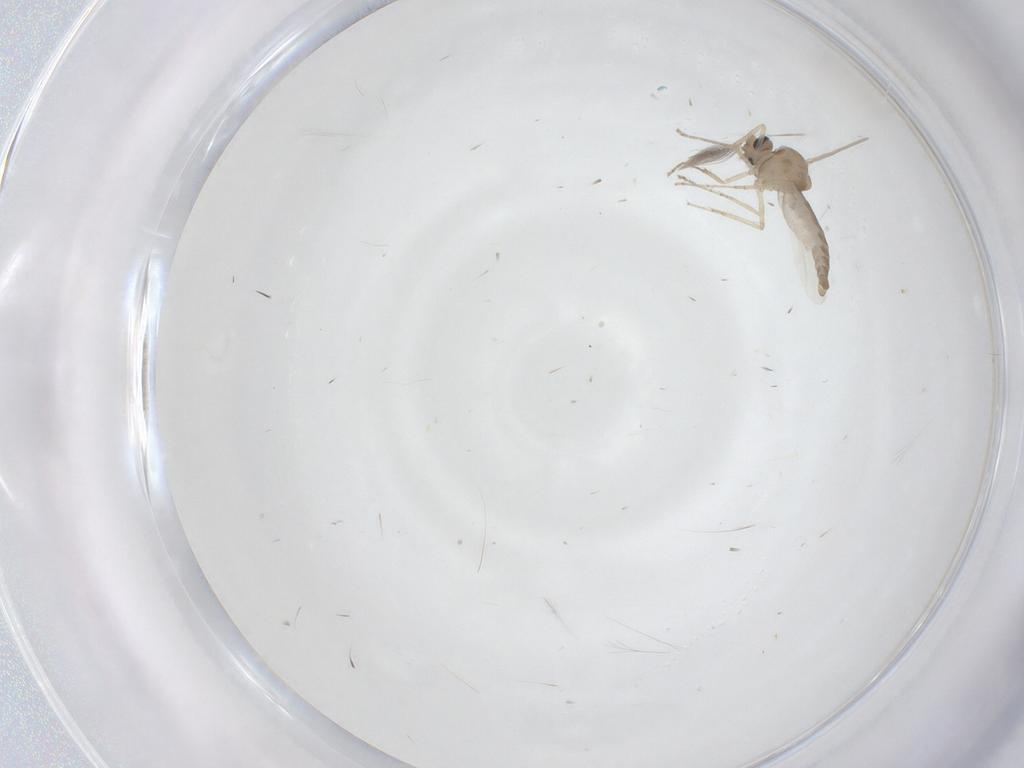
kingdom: Animalia
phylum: Arthropoda
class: Insecta
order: Diptera
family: Ceratopogonidae
